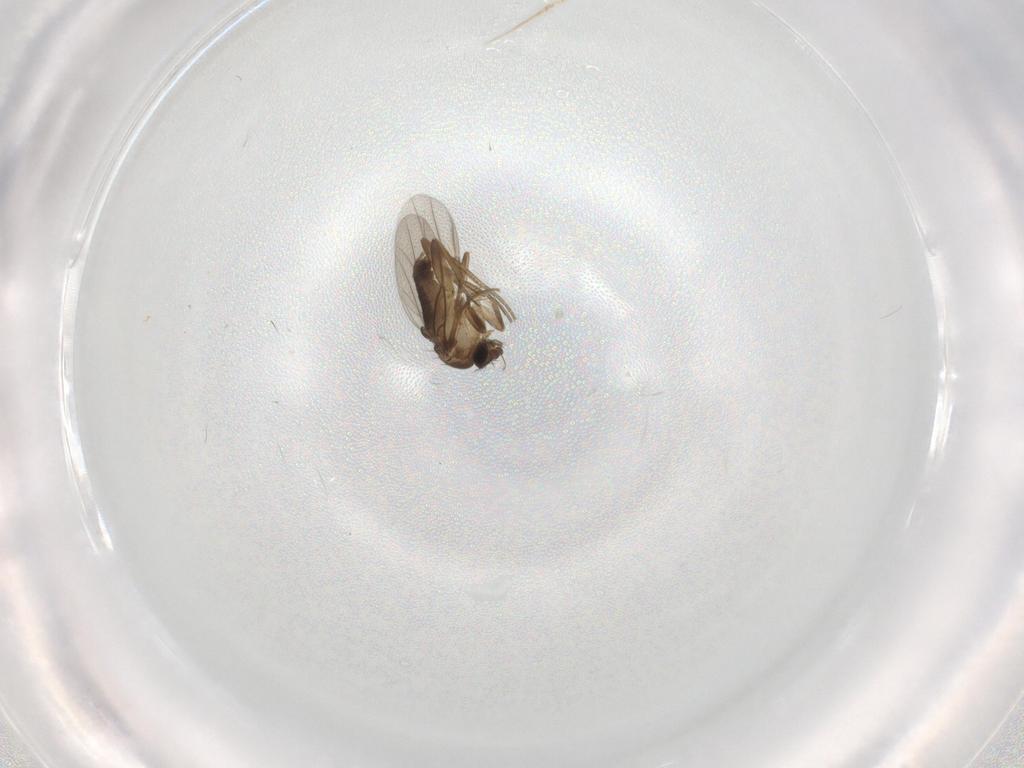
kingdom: Animalia
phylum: Arthropoda
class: Insecta
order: Diptera
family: Phoridae
